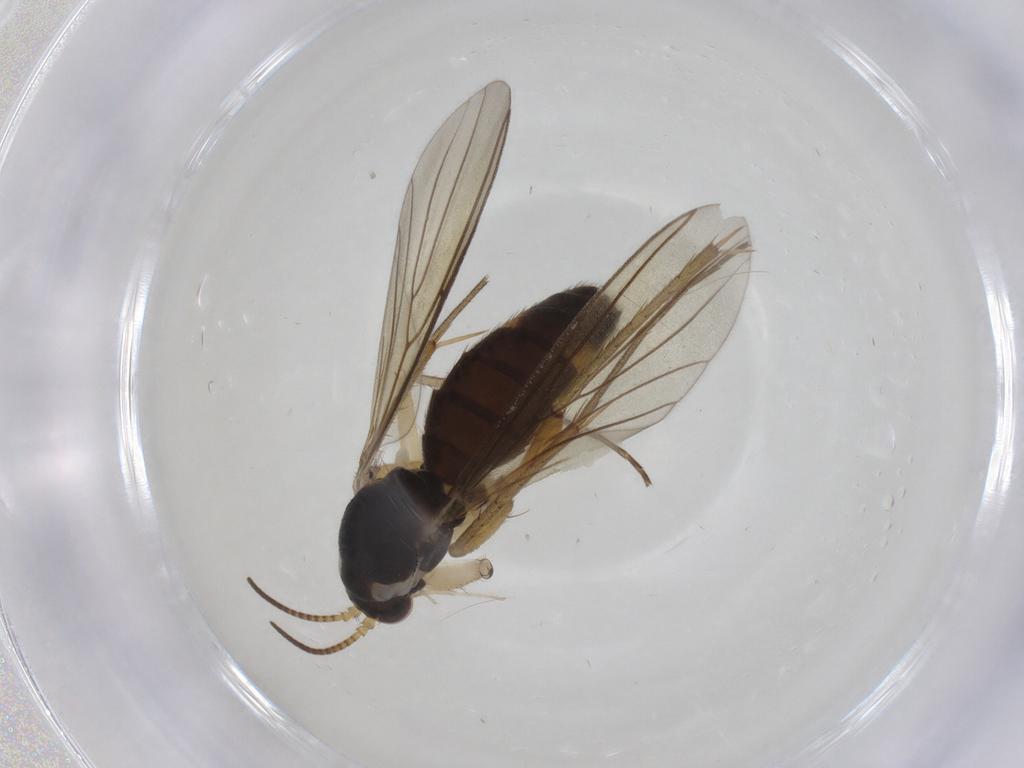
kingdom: Animalia
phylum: Arthropoda
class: Insecta
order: Diptera
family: Mycetophilidae
